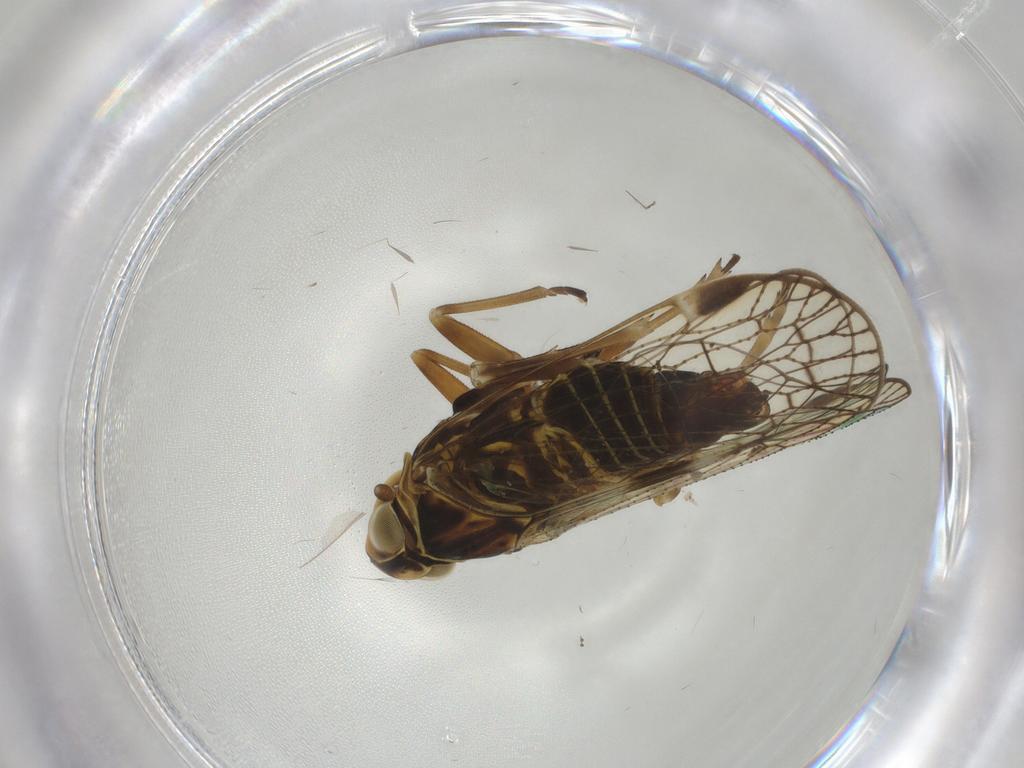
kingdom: Animalia
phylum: Arthropoda
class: Insecta
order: Hemiptera
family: Cixiidae
